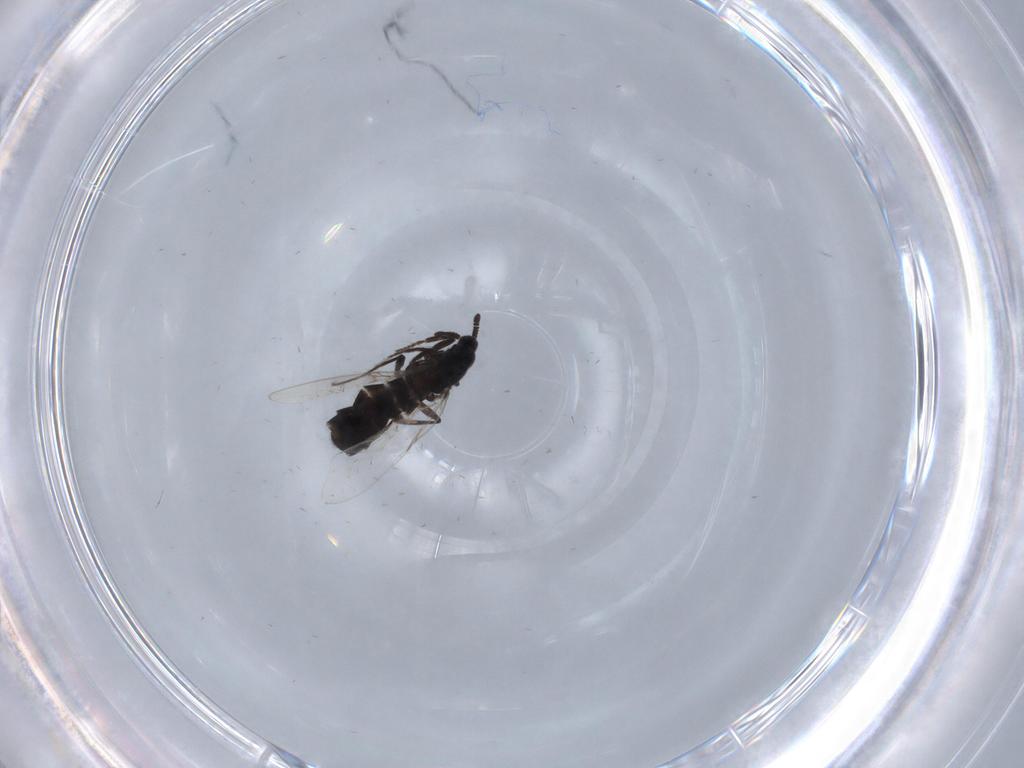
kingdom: Animalia
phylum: Arthropoda
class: Insecta
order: Diptera
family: Scatopsidae
